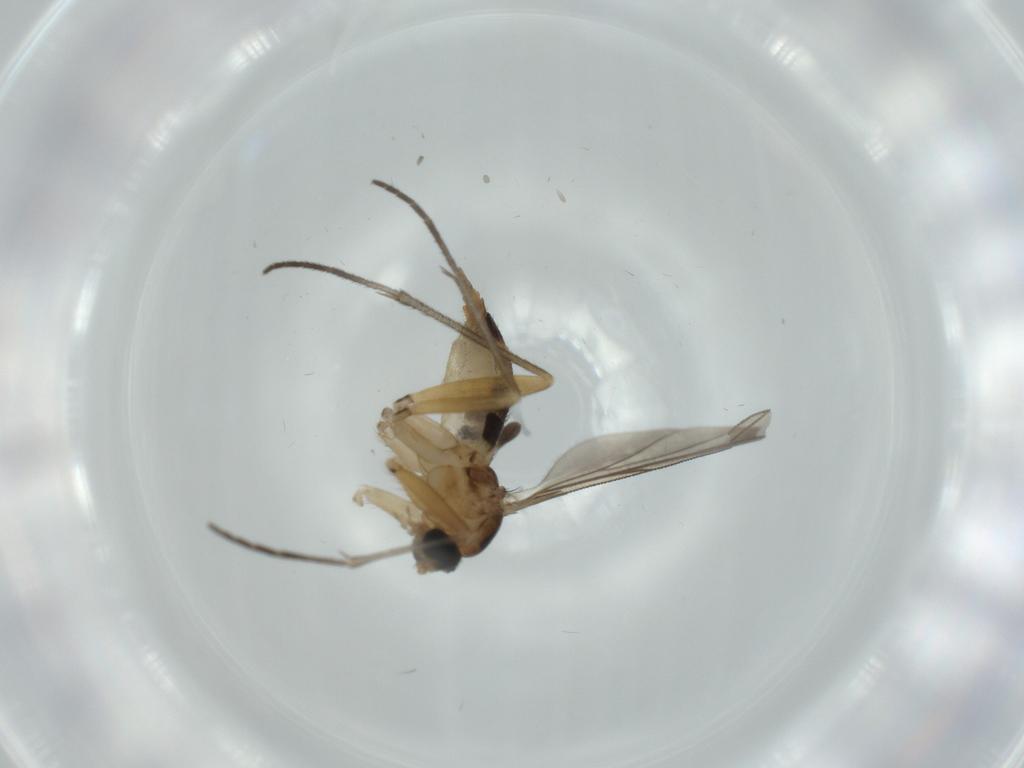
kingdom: Animalia
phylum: Arthropoda
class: Insecta
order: Diptera
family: Sciaridae
